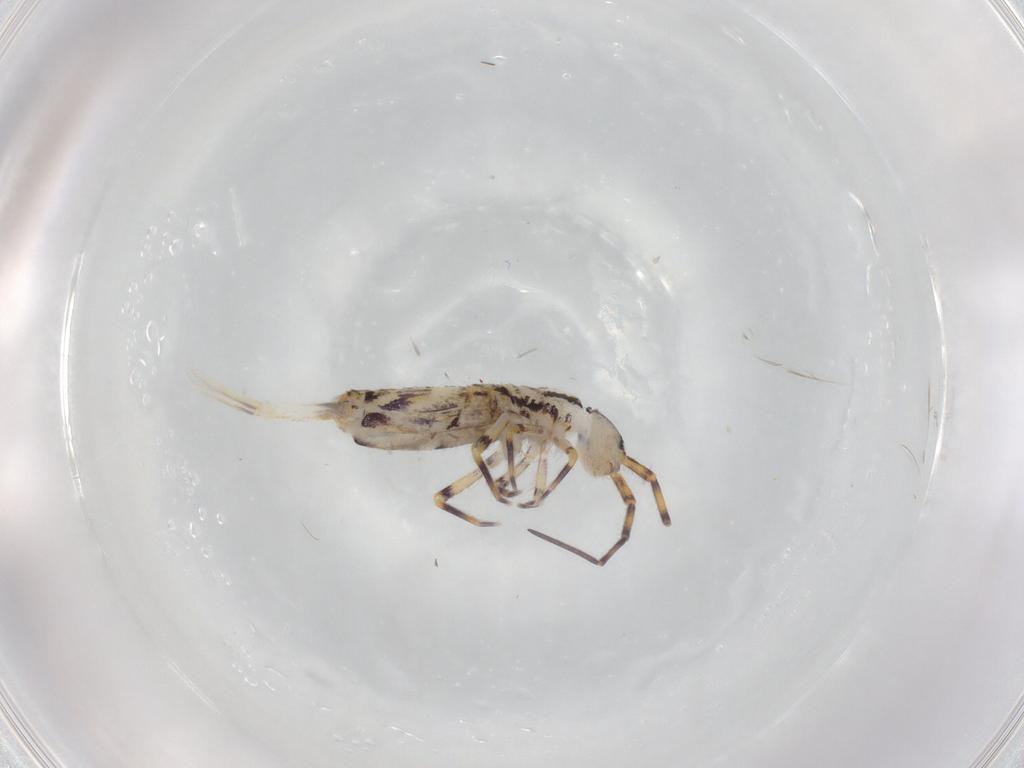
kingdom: Animalia
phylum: Arthropoda
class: Collembola
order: Entomobryomorpha
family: Entomobryidae
